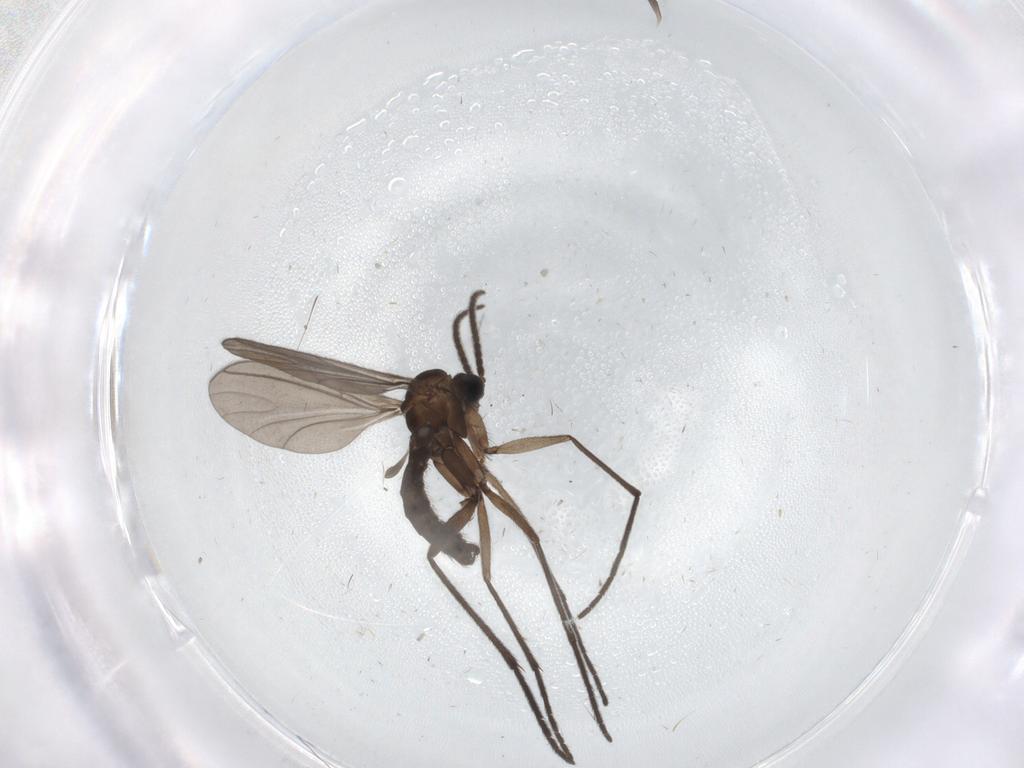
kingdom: Animalia
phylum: Arthropoda
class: Insecta
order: Diptera
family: Sciaridae
